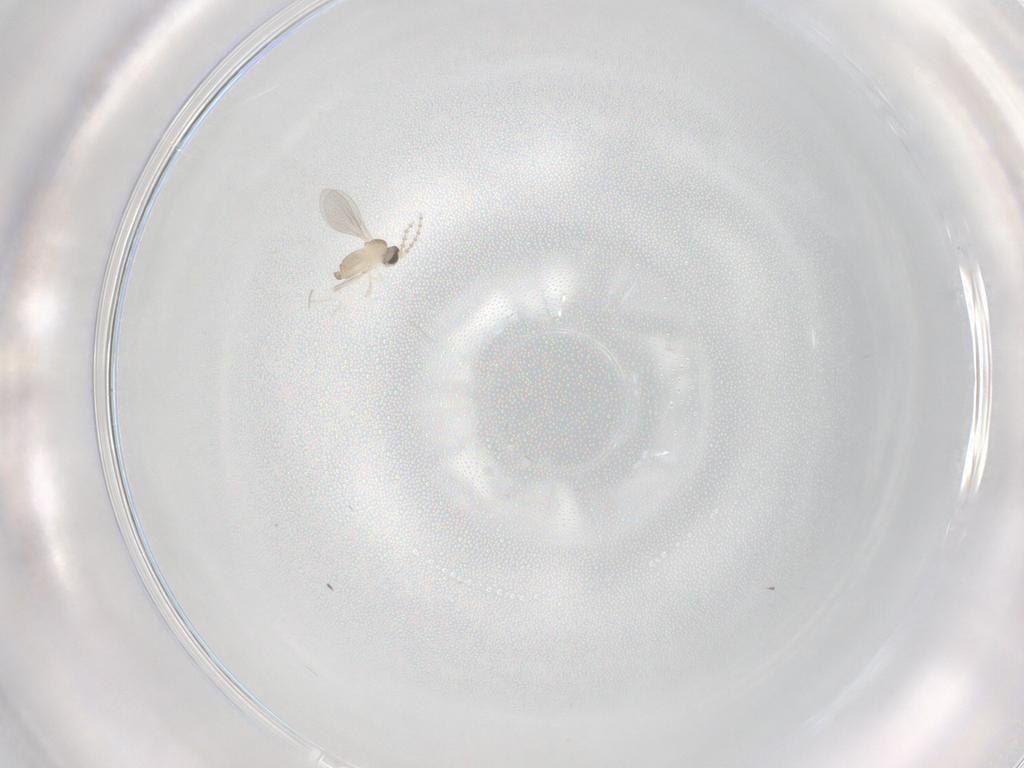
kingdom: Animalia
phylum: Arthropoda
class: Insecta
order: Diptera
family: Cecidomyiidae
